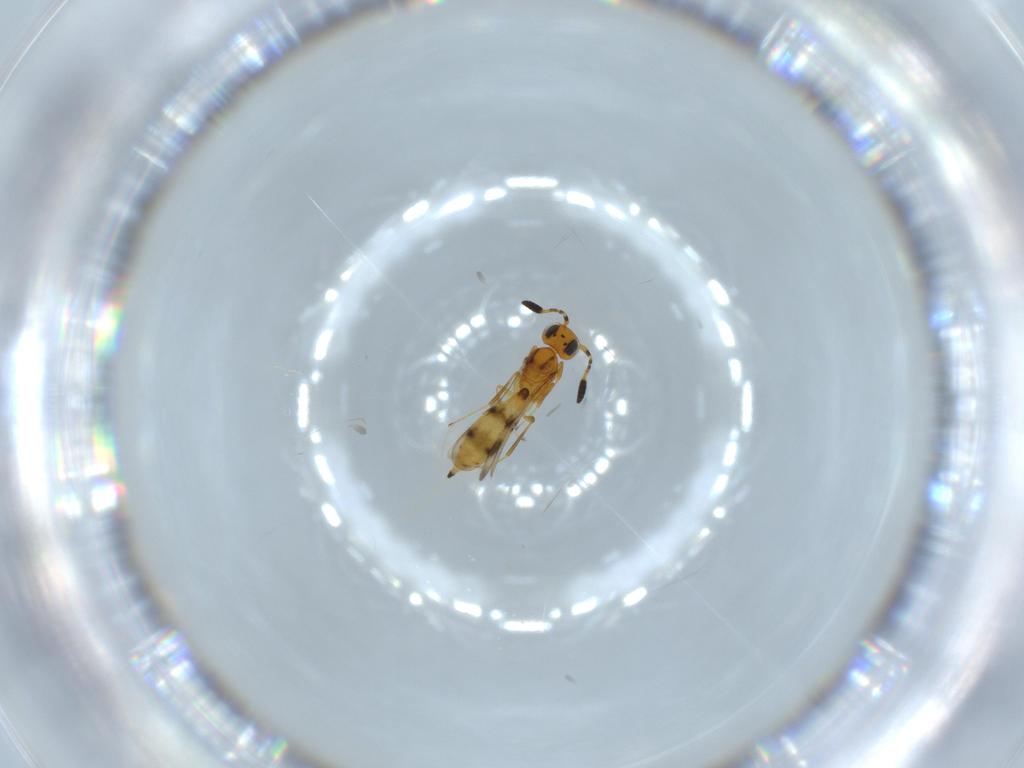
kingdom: Animalia
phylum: Arthropoda
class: Insecta
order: Hymenoptera
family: Scelionidae
